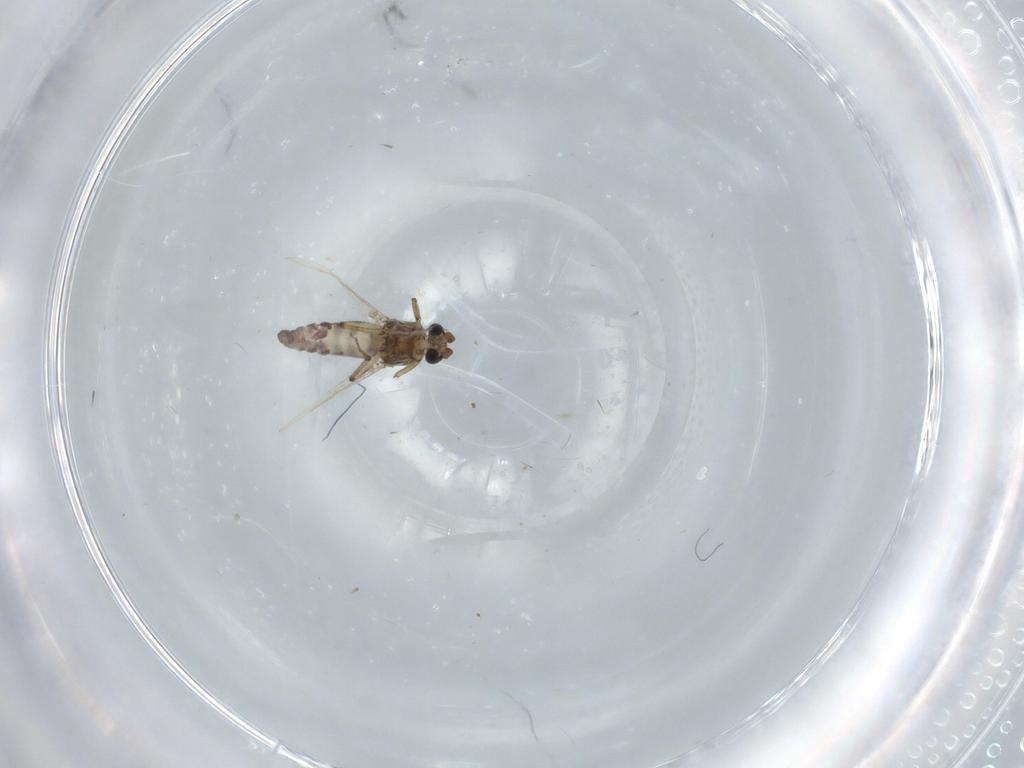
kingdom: Animalia
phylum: Arthropoda
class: Insecta
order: Diptera
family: Ceratopogonidae
